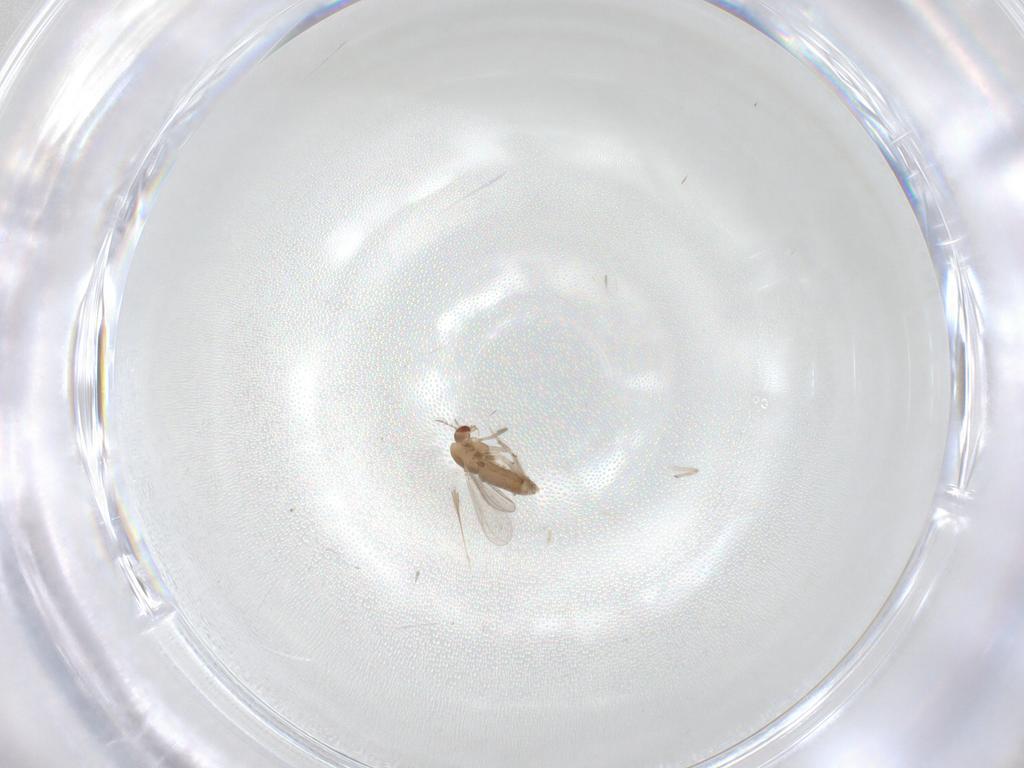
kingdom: Animalia
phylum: Arthropoda
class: Insecta
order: Diptera
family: Chironomidae
